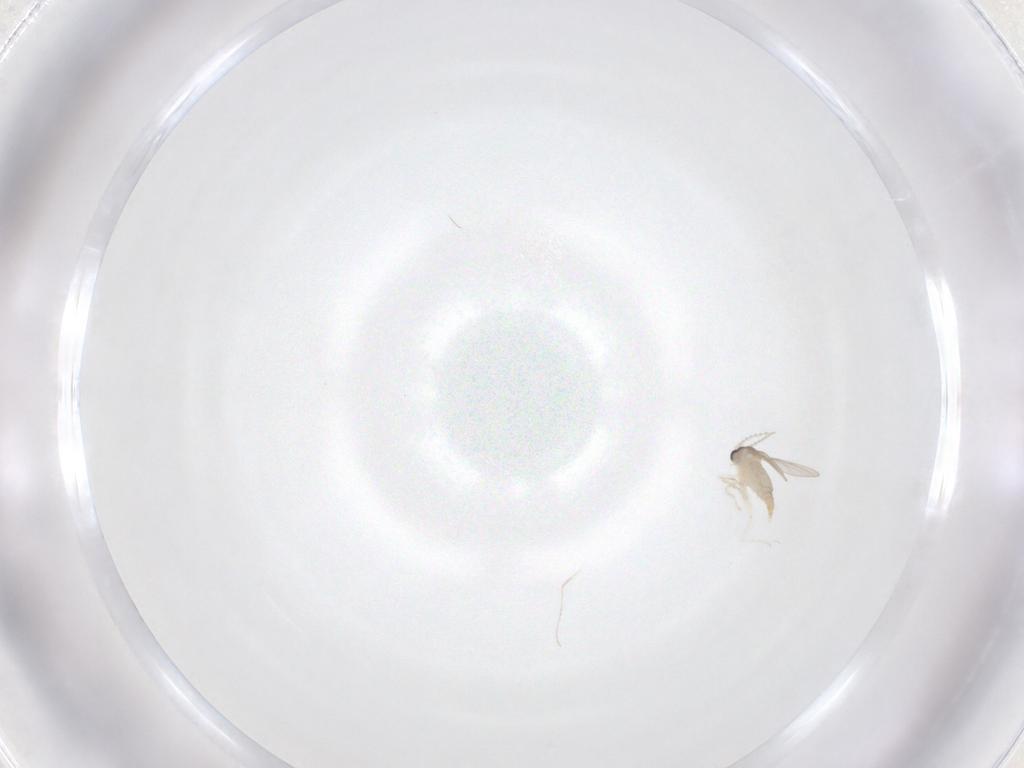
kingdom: Animalia
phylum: Arthropoda
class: Insecta
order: Diptera
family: Cecidomyiidae
